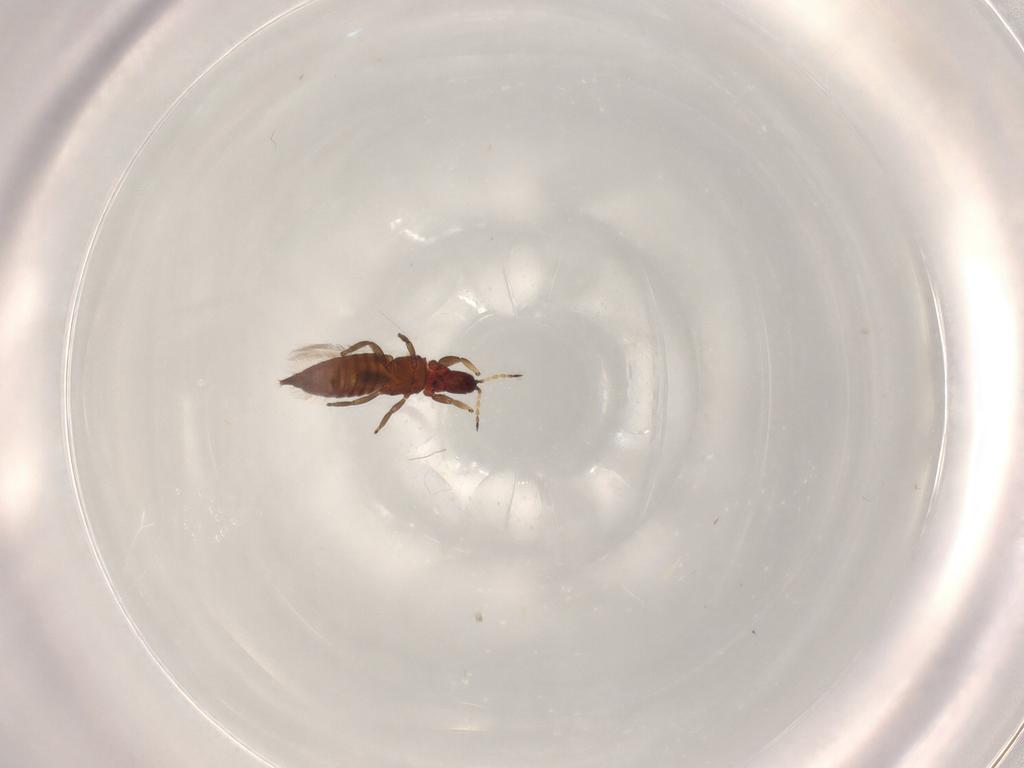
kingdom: Animalia
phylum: Arthropoda
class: Insecta
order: Thysanoptera
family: Phlaeothripidae
